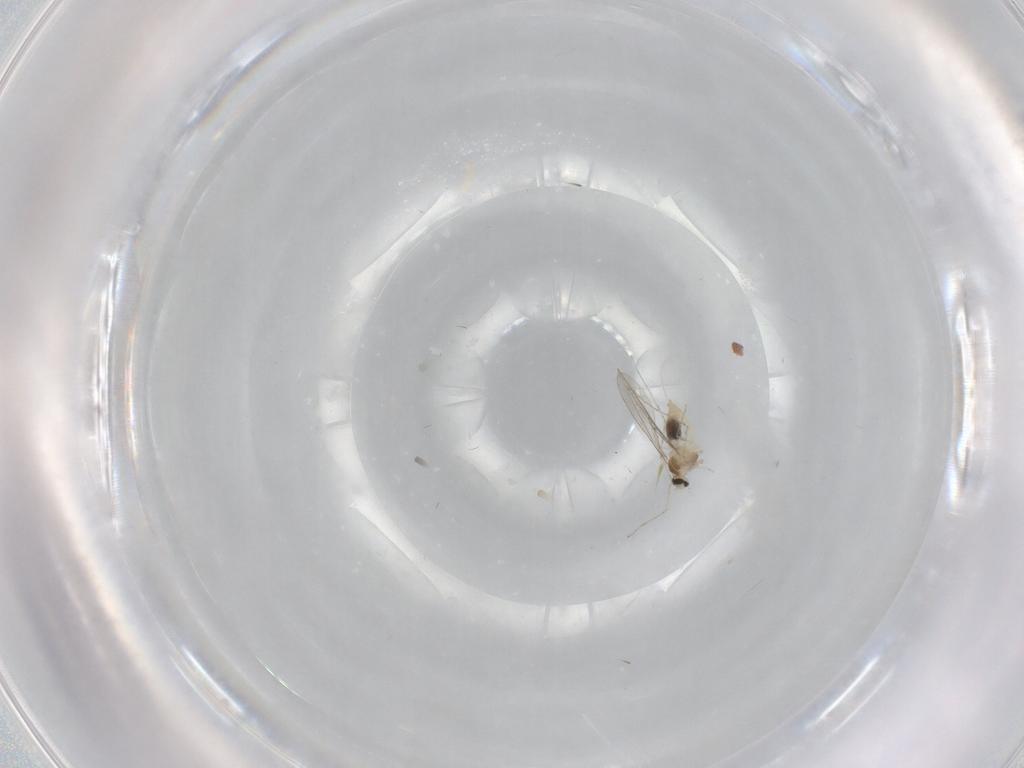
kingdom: Animalia
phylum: Arthropoda
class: Insecta
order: Diptera
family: Cecidomyiidae
